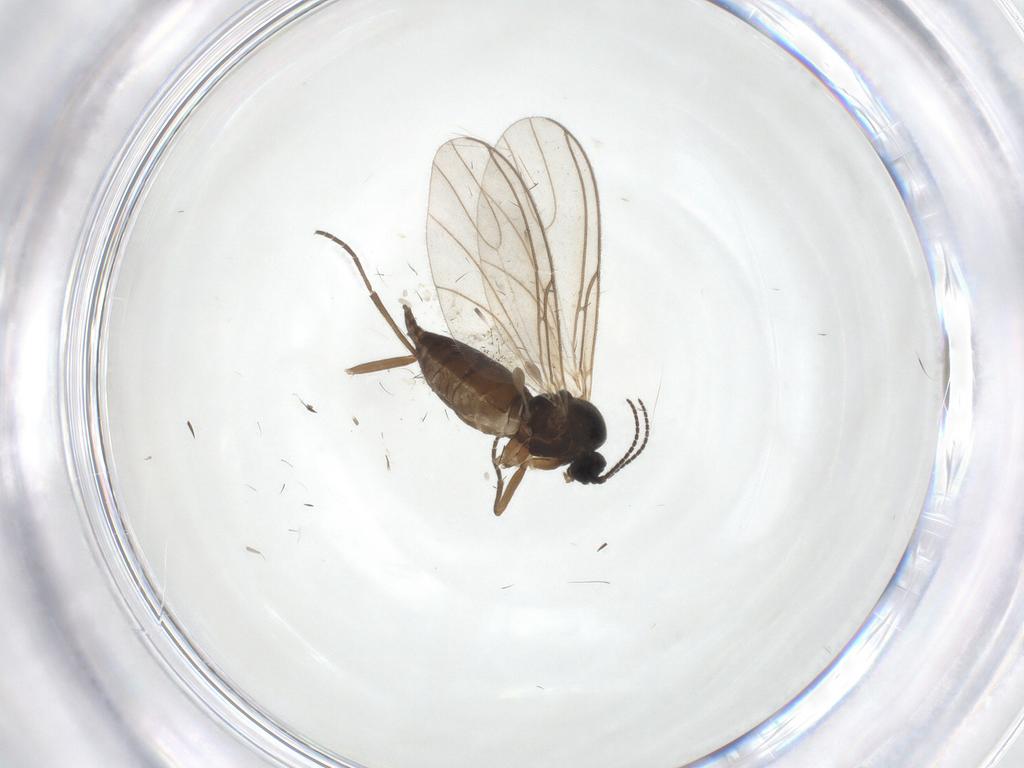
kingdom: Animalia
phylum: Arthropoda
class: Insecta
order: Diptera
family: Sciaridae
